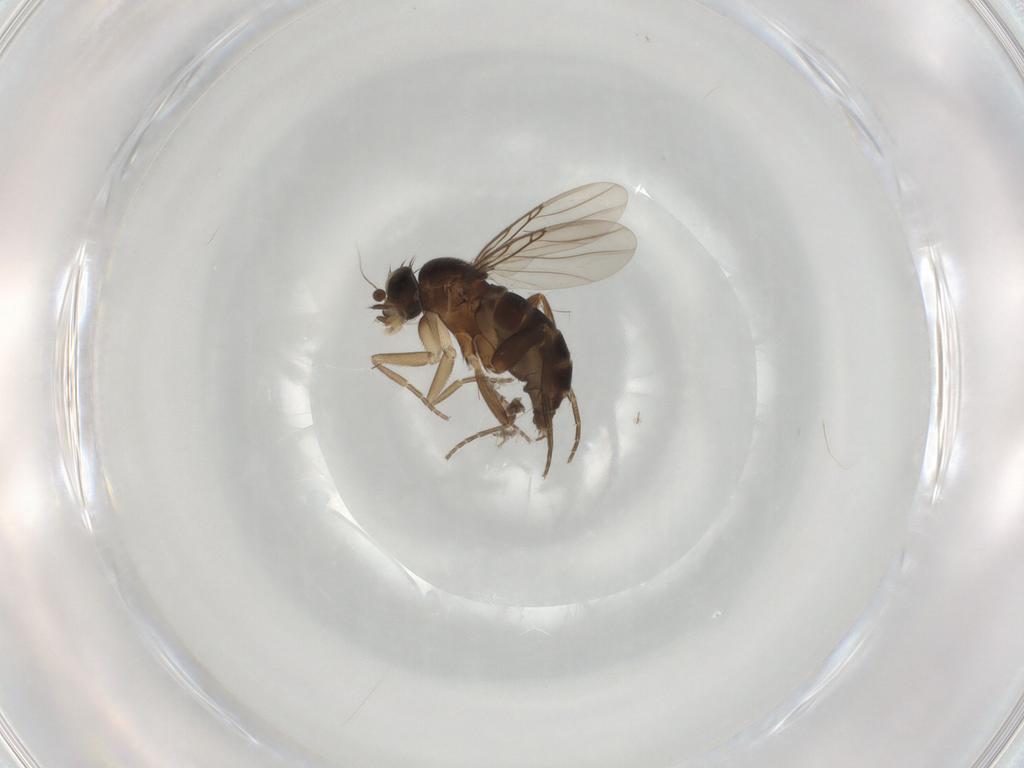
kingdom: Animalia
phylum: Arthropoda
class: Insecta
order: Diptera
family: Phoridae
